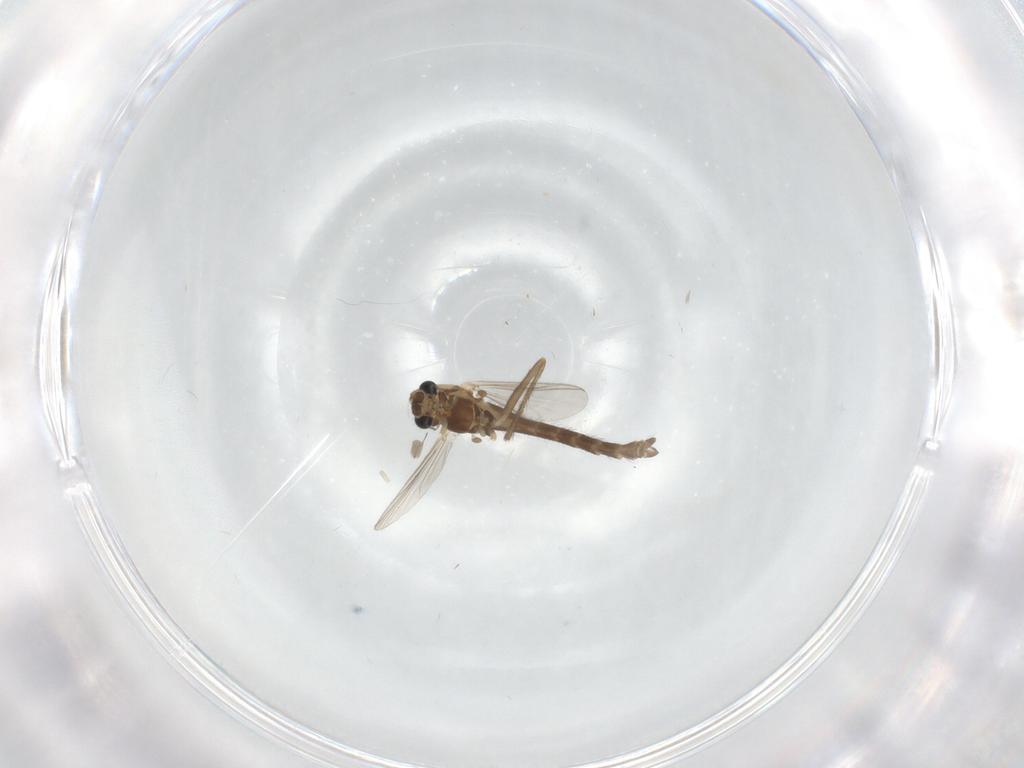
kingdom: Animalia
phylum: Arthropoda
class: Insecta
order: Diptera
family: Chironomidae
